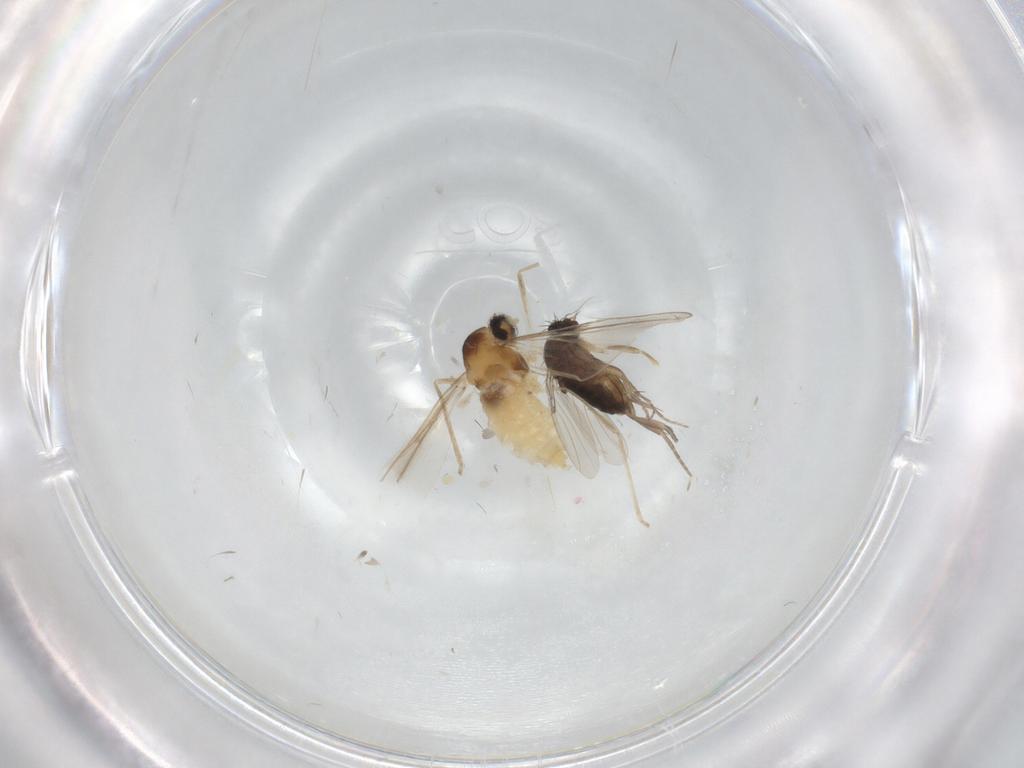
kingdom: Animalia
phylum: Arthropoda
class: Insecta
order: Diptera
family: Phoridae
